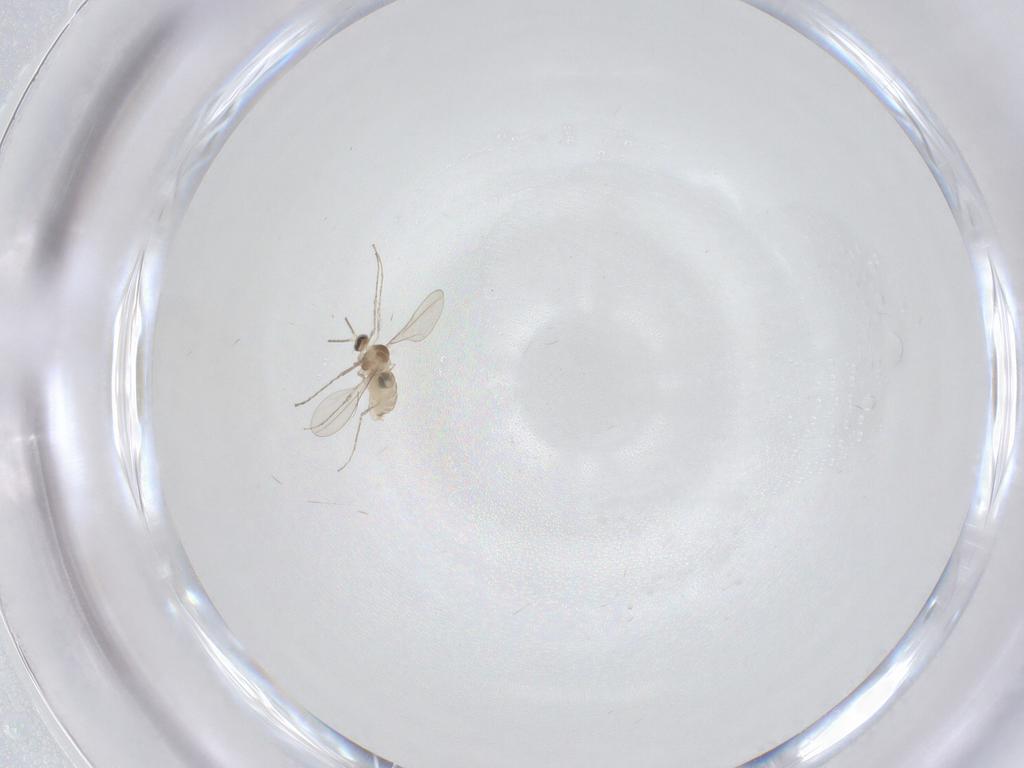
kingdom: Animalia
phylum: Arthropoda
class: Insecta
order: Diptera
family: Cecidomyiidae
